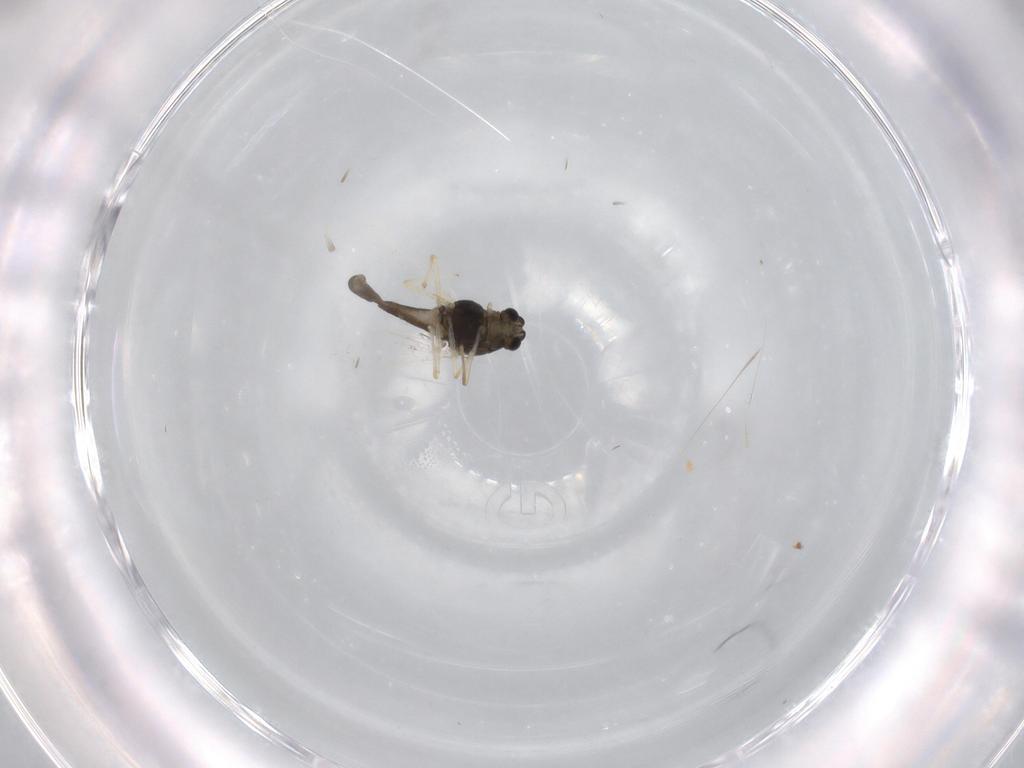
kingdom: Animalia
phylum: Arthropoda
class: Insecta
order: Diptera
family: Chironomidae
